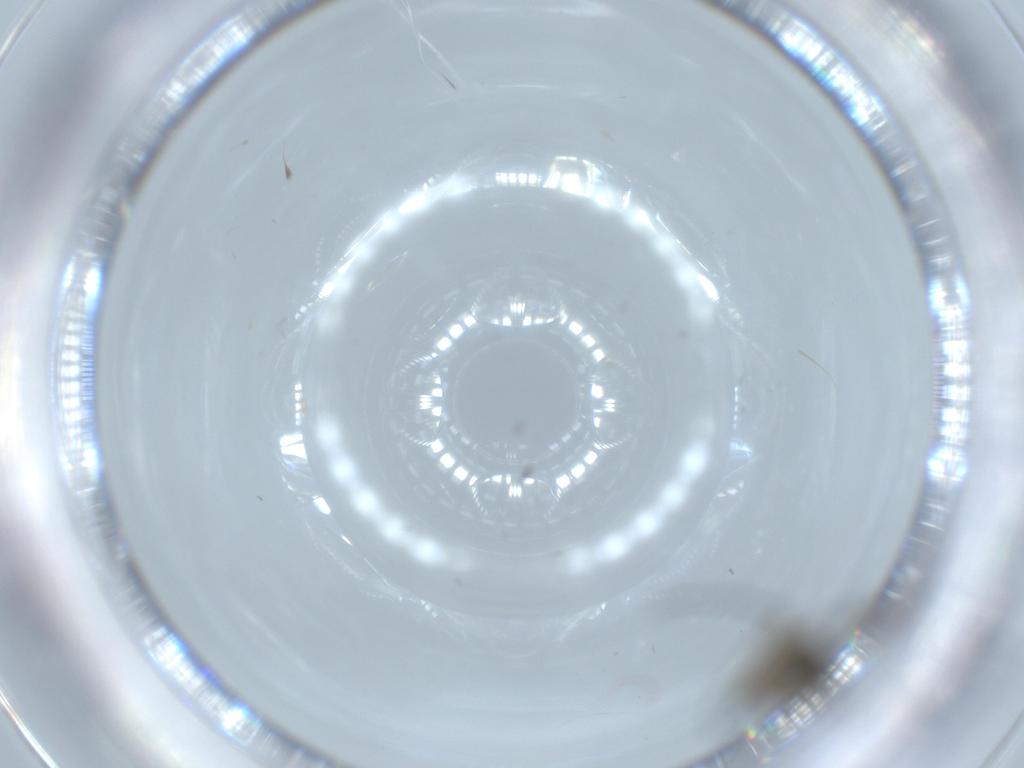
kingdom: Animalia
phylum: Arthropoda
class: Insecta
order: Diptera
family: Sciaridae
